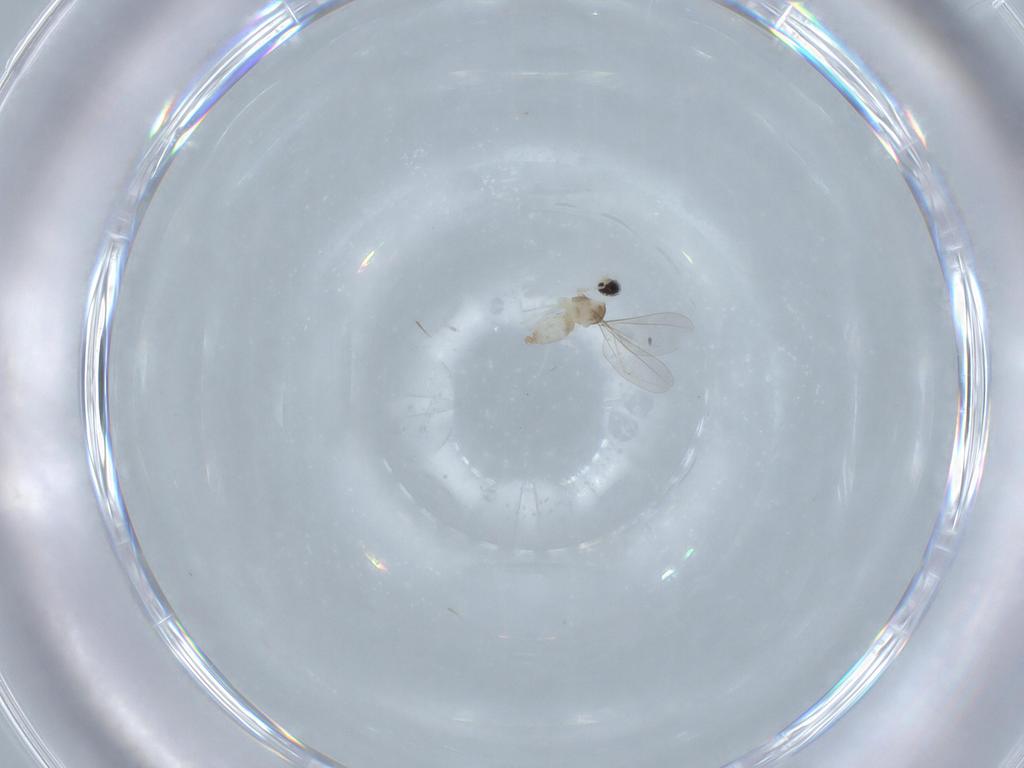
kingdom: Animalia
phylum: Arthropoda
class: Insecta
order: Diptera
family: Cecidomyiidae
